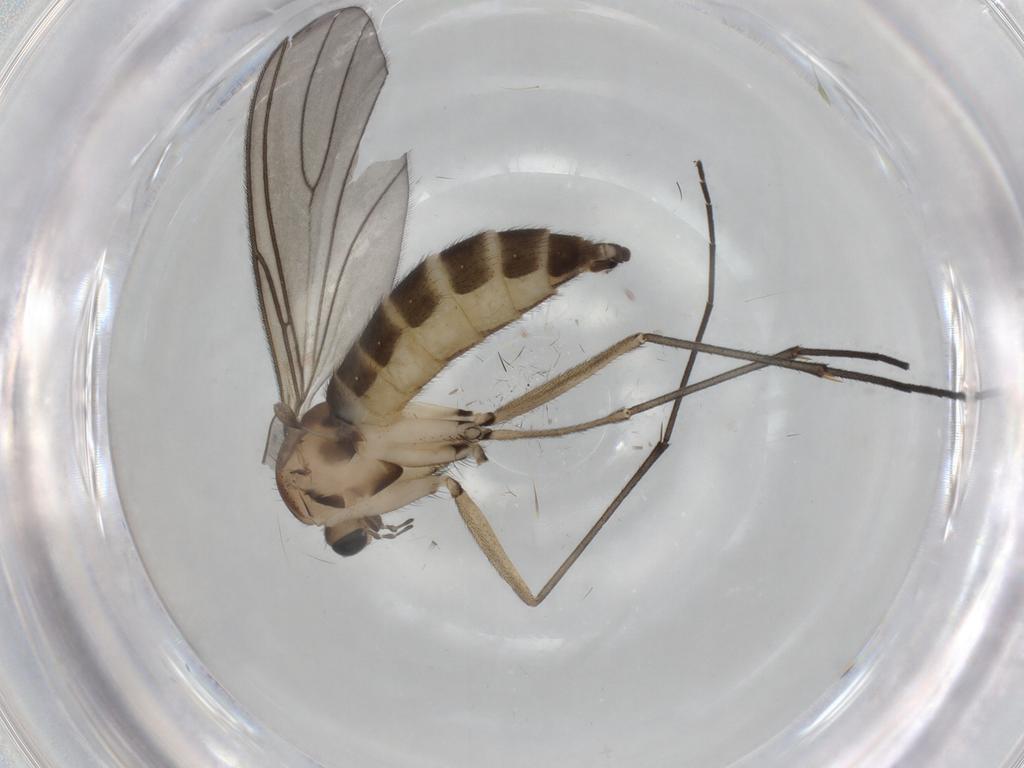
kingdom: Animalia
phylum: Arthropoda
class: Insecta
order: Diptera
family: Sciaridae
